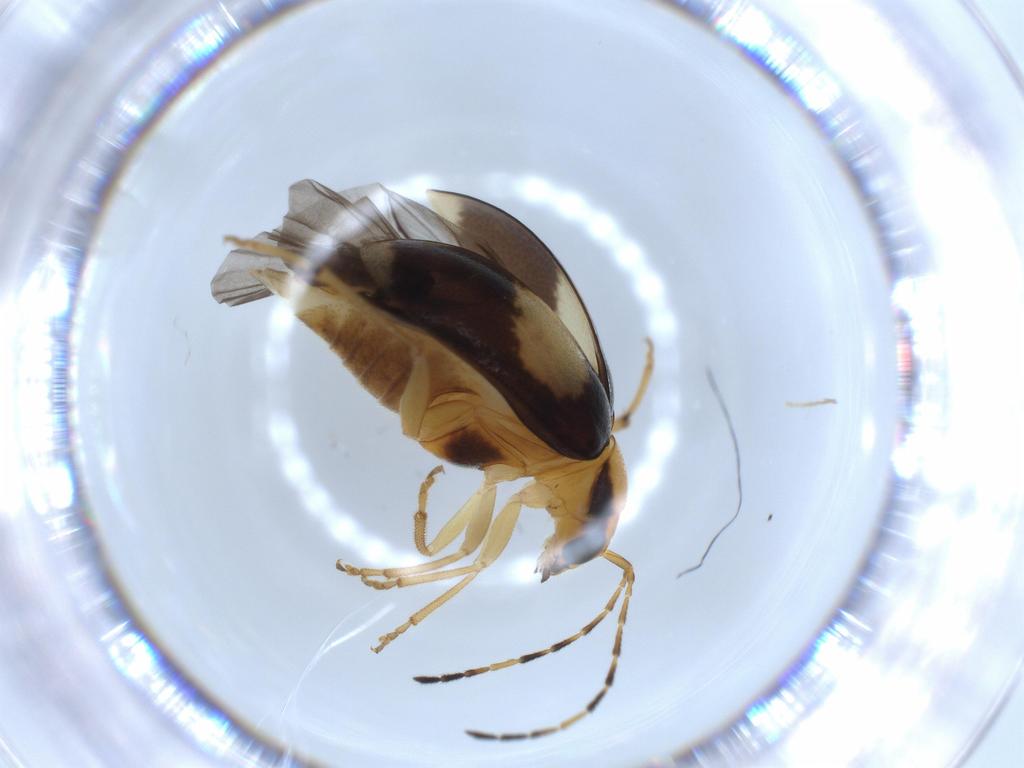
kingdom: Animalia
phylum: Arthropoda
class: Insecta
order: Coleoptera
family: Chrysomelidae
